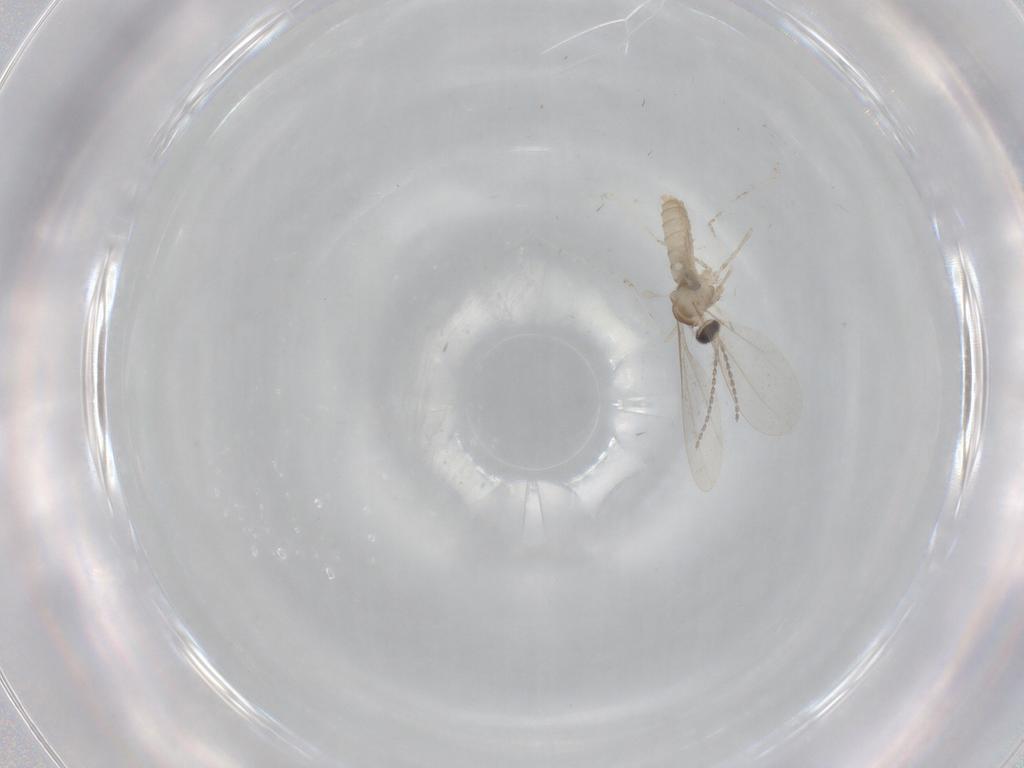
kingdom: Animalia
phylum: Arthropoda
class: Insecta
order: Diptera
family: Cecidomyiidae
